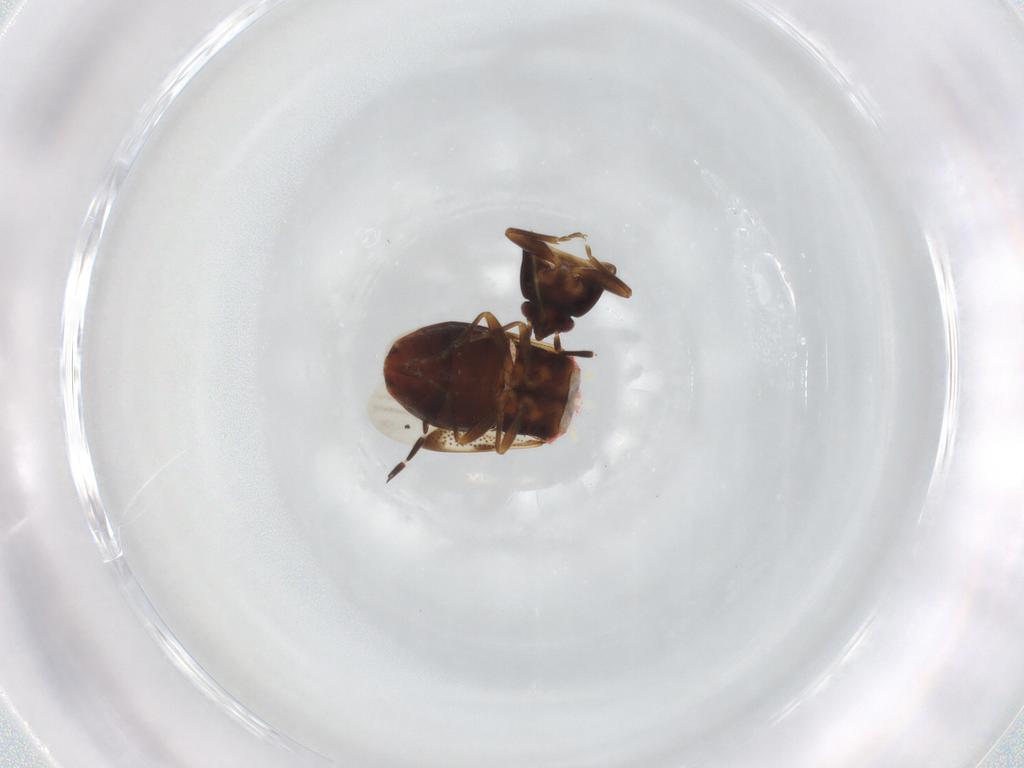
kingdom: Animalia
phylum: Arthropoda
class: Insecta
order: Hemiptera
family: Rhyparochromidae
